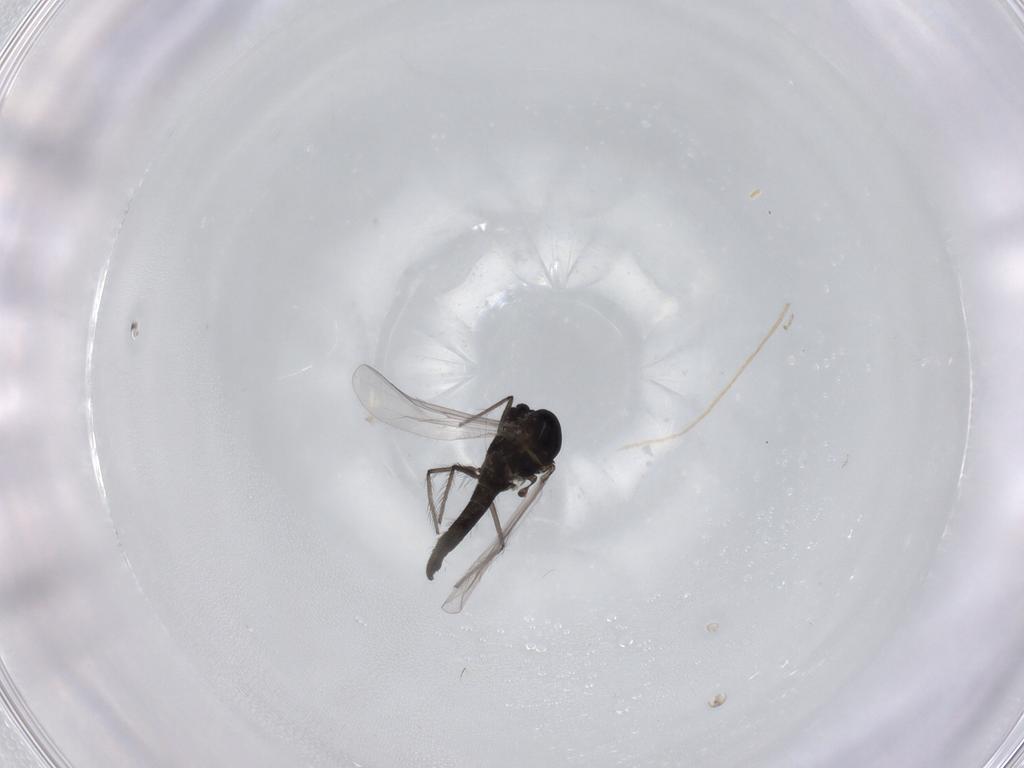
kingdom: Animalia
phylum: Arthropoda
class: Insecta
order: Diptera
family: Chironomidae
